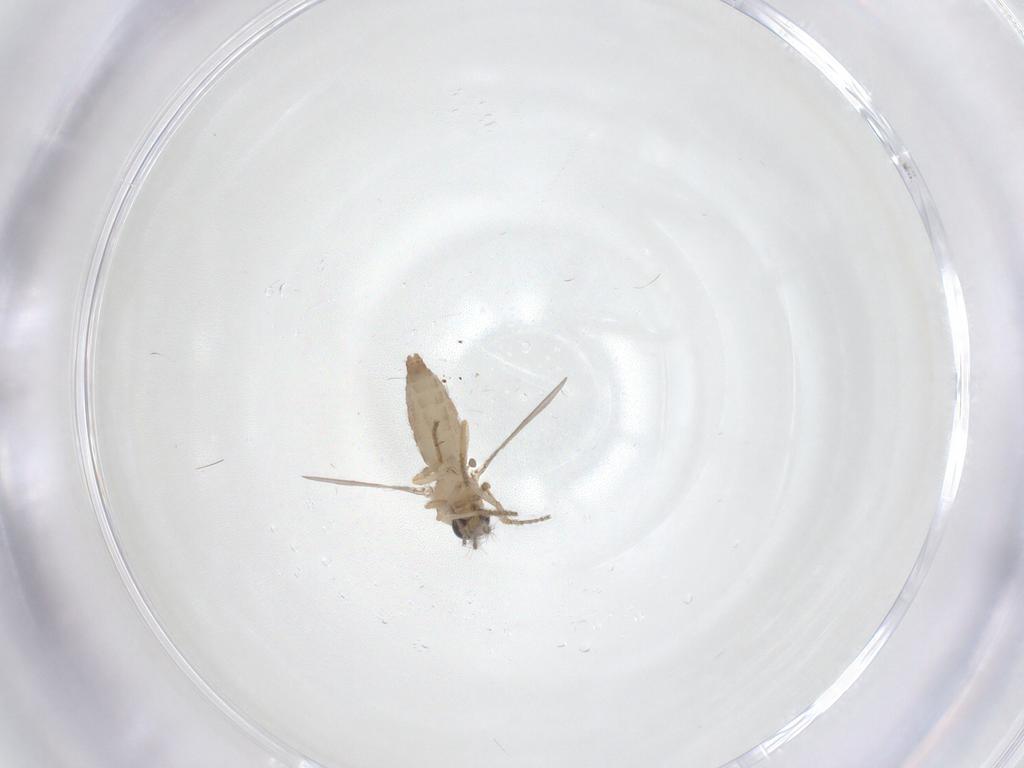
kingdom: Animalia
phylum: Arthropoda
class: Insecta
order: Diptera
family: Ceratopogonidae
